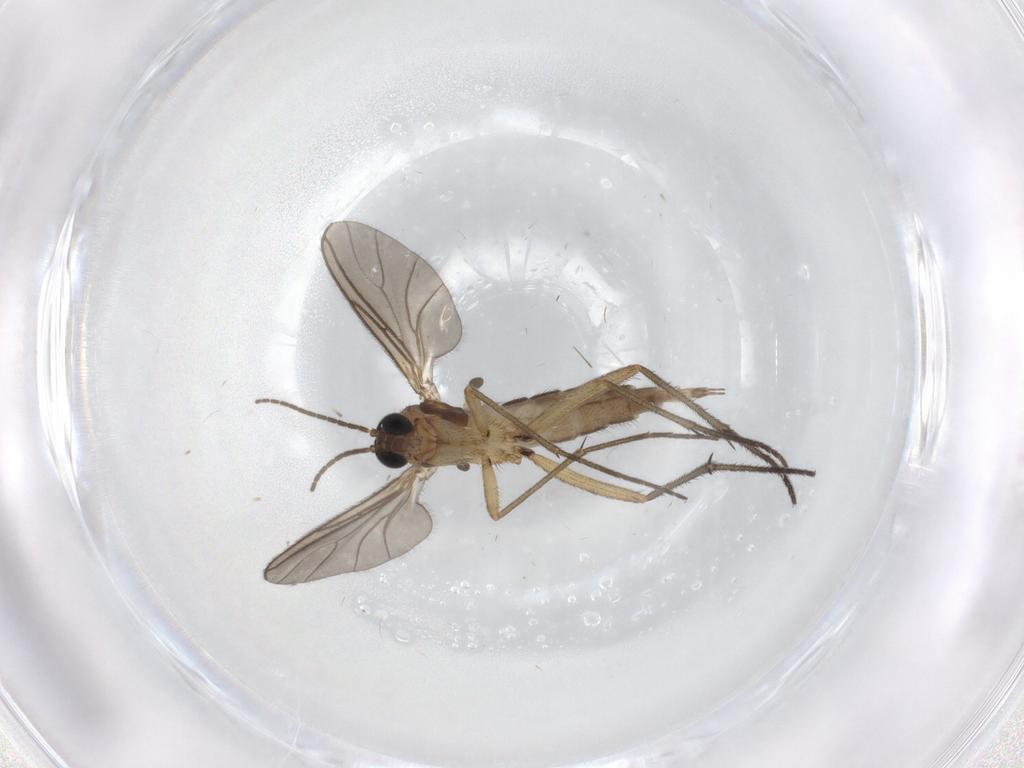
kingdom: Animalia
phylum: Arthropoda
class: Insecta
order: Diptera
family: Sciaridae
